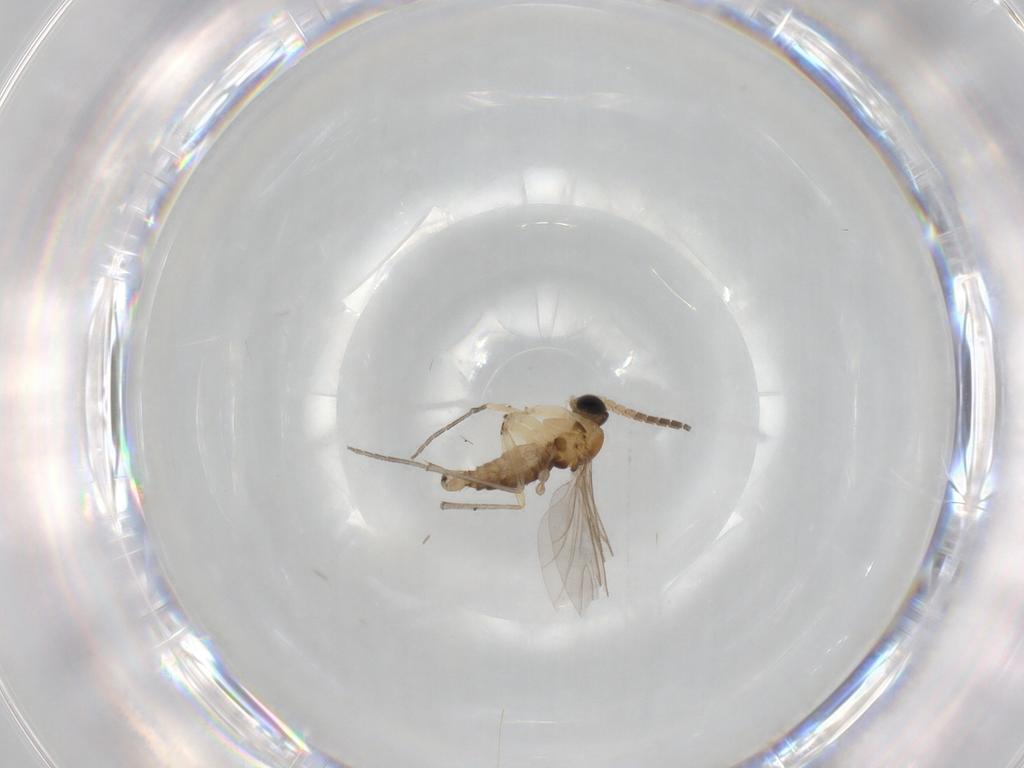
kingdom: Animalia
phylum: Arthropoda
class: Insecta
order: Diptera
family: Sciaridae
